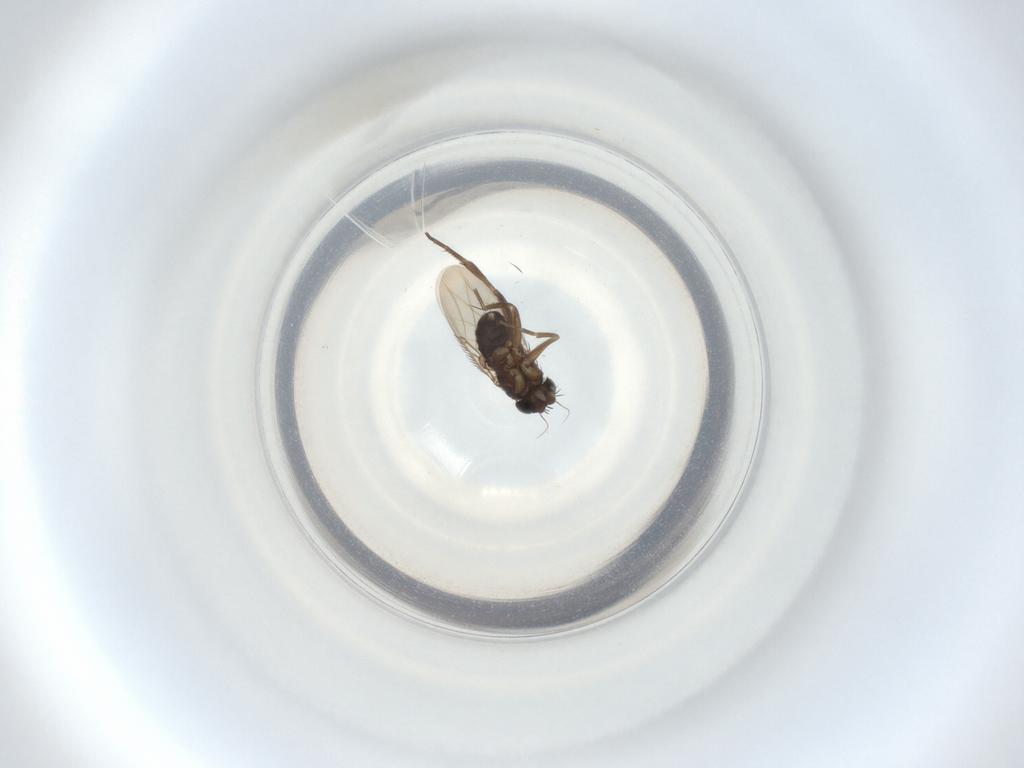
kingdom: Animalia
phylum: Arthropoda
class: Insecta
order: Diptera
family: Phoridae
